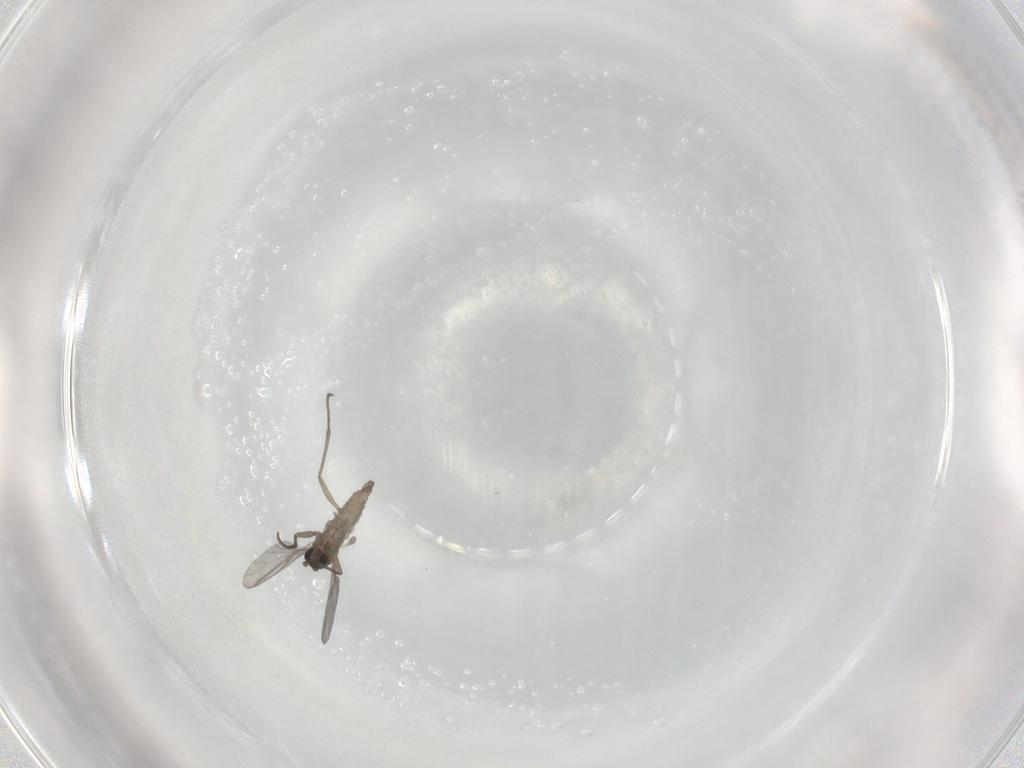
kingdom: Animalia
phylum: Arthropoda
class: Insecta
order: Diptera
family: Sciaridae
